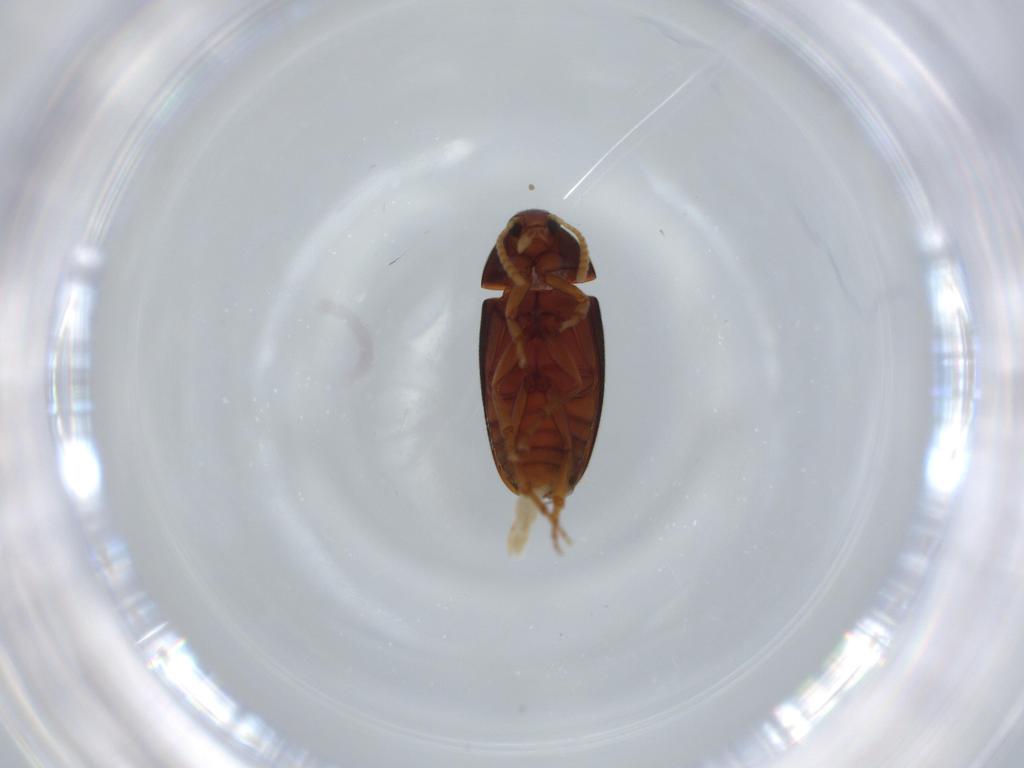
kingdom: Animalia
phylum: Arthropoda
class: Insecta
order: Coleoptera
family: Scraptiidae
